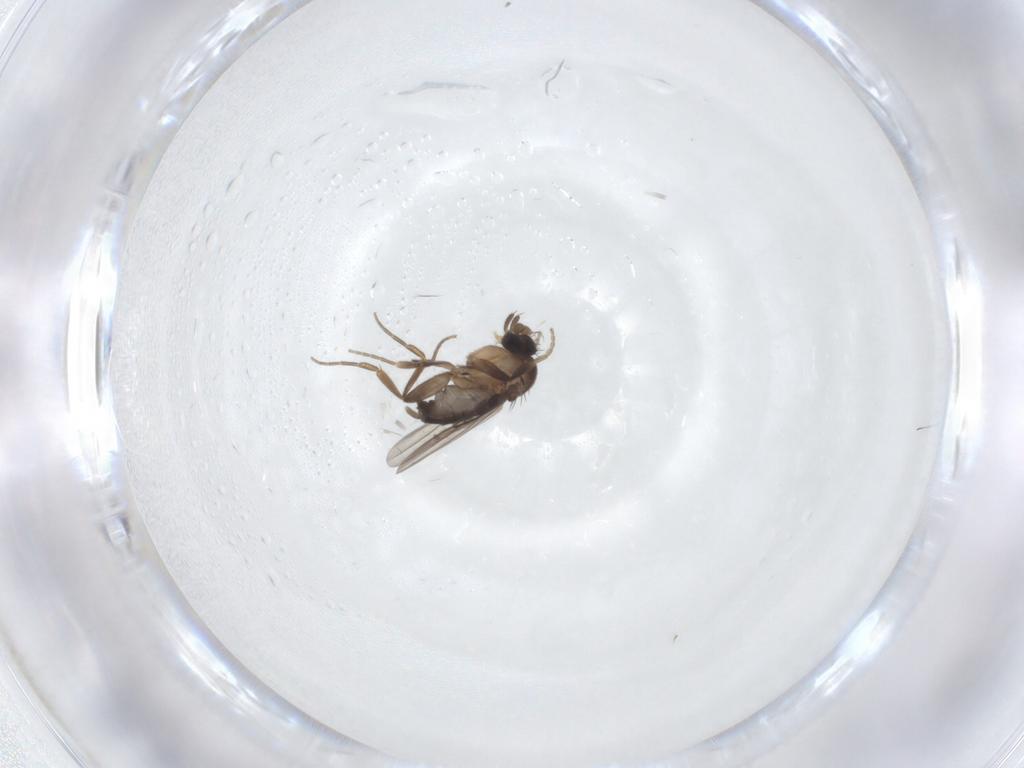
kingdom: Animalia
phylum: Arthropoda
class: Insecta
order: Diptera
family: Phoridae
